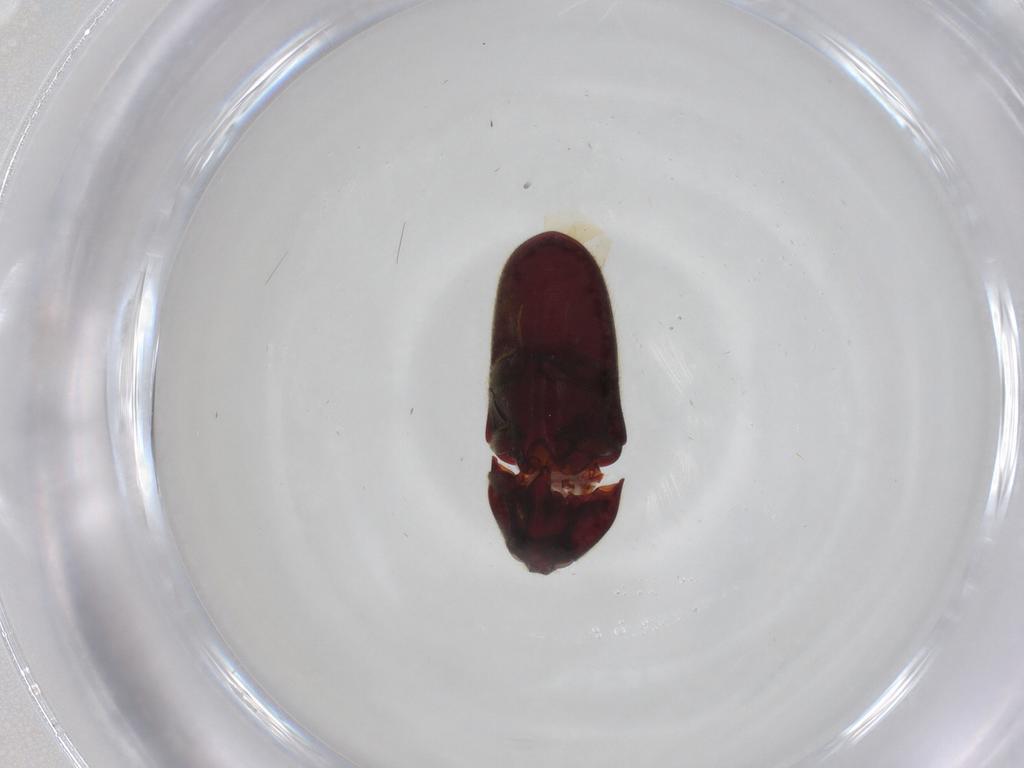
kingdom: Animalia
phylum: Arthropoda
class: Insecta
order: Coleoptera
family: Throscidae
